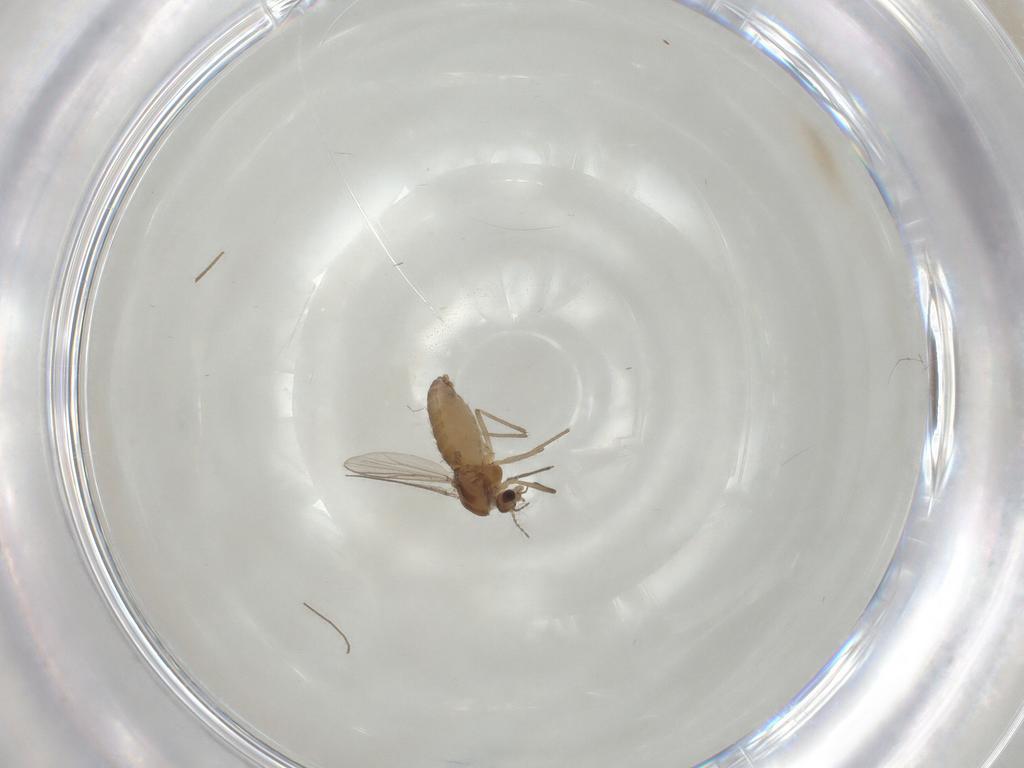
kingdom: Animalia
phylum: Arthropoda
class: Insecta
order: Diptera
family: Chironomidae
